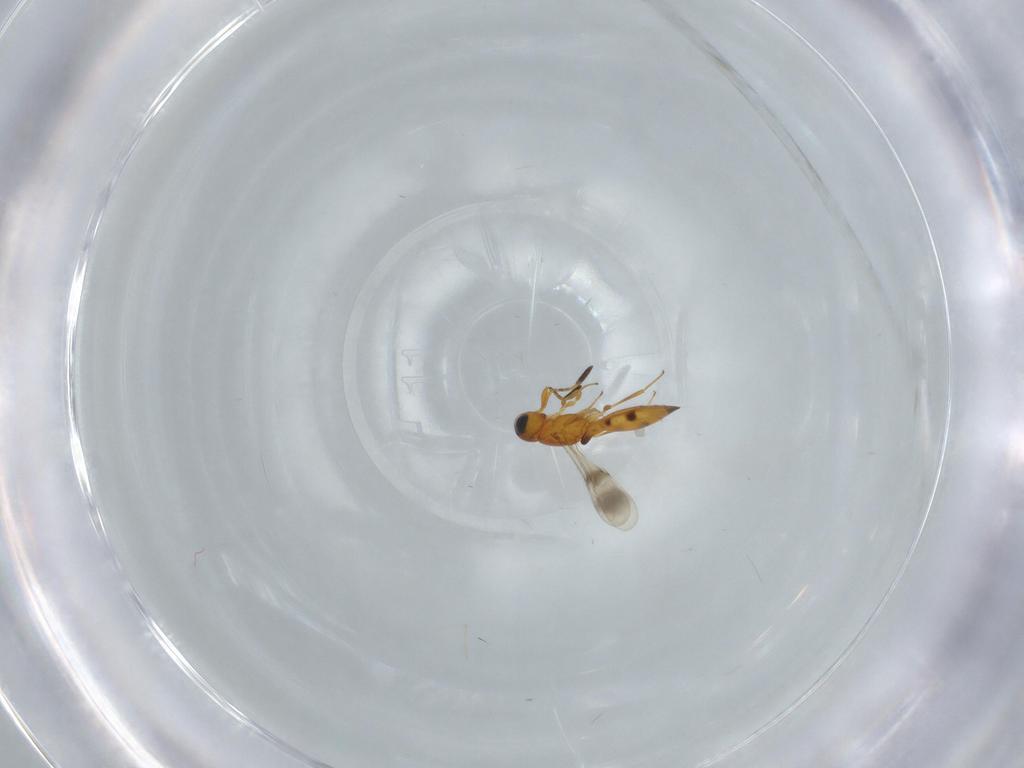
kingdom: Animalia
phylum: Arthropoda
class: Insecta
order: Hymenoptera
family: Scelionidae
